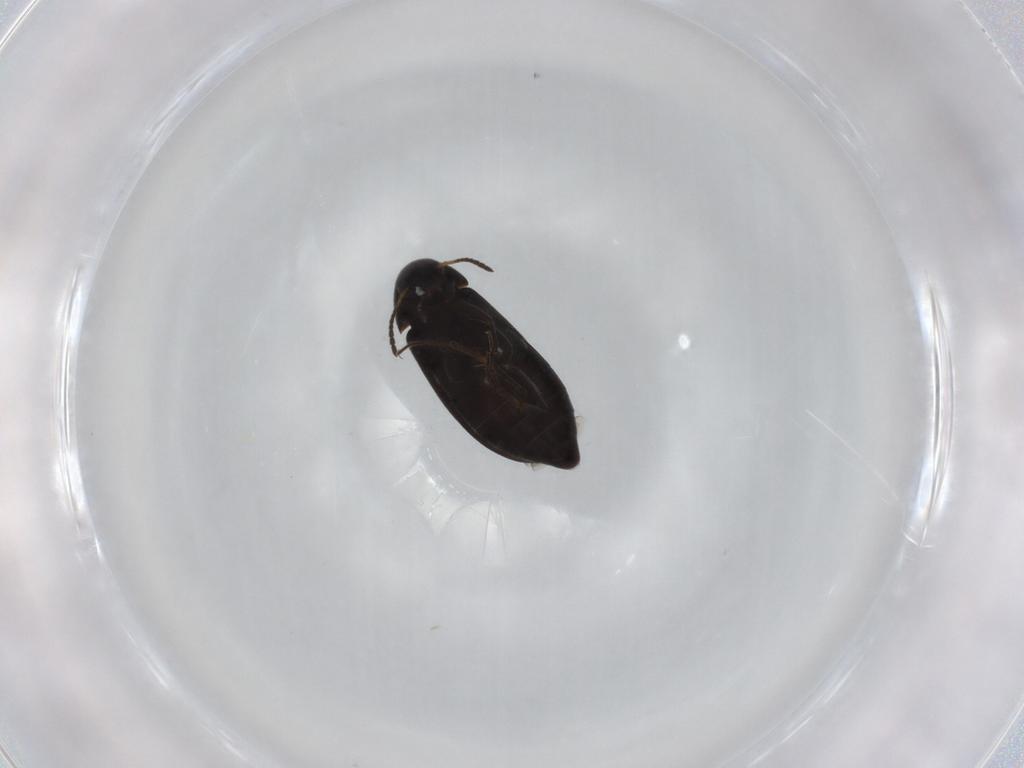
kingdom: Animalia
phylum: Arthropoda
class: Insecta
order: Coleoptera
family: Scraptiidae
